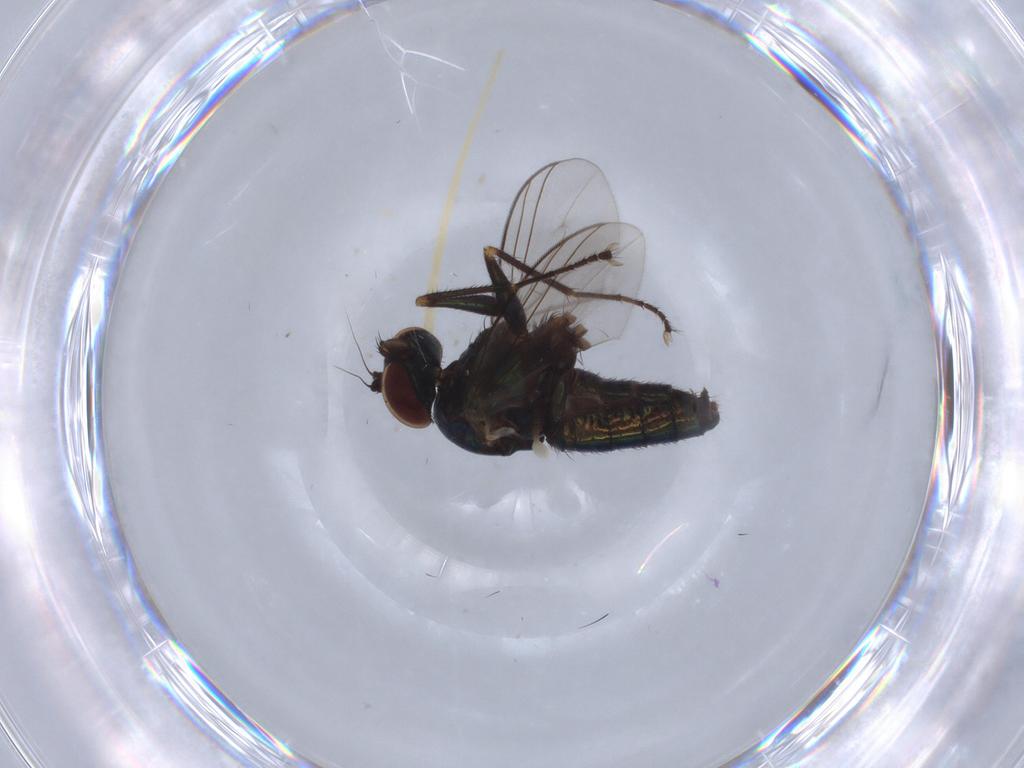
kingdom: Animalia
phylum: Arthropoda
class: Insecta
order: Diptera
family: Dolichopodidae
